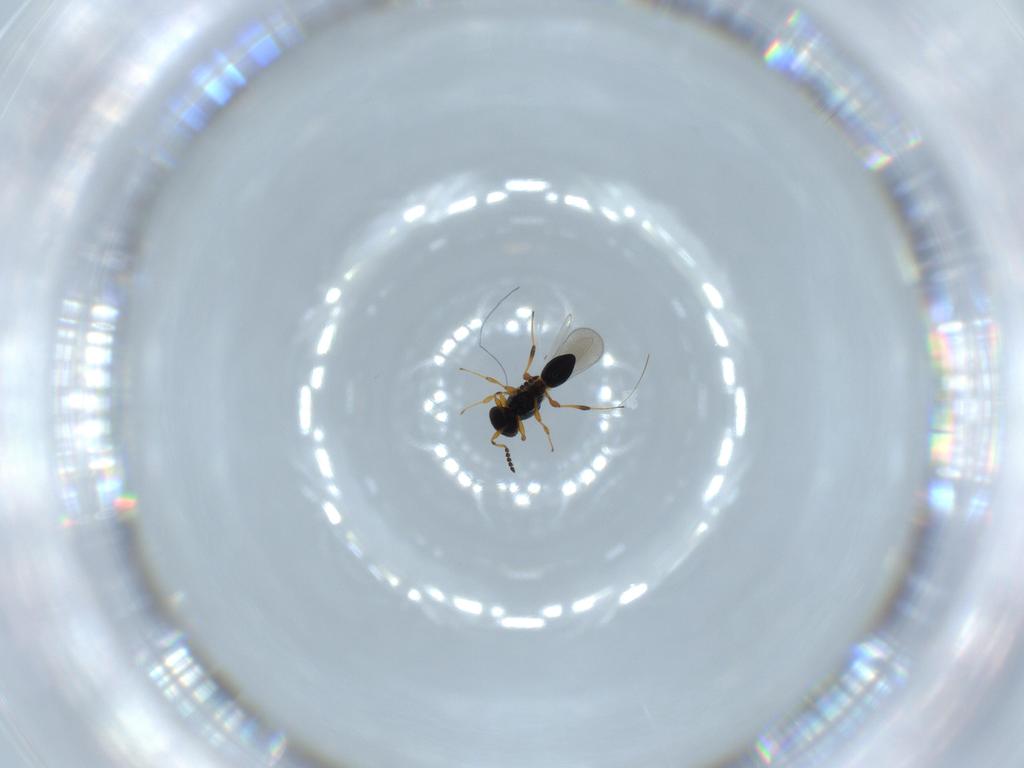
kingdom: Animalia
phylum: Arthropoda
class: Insecta
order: Hymenoptera
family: Platygastridae
